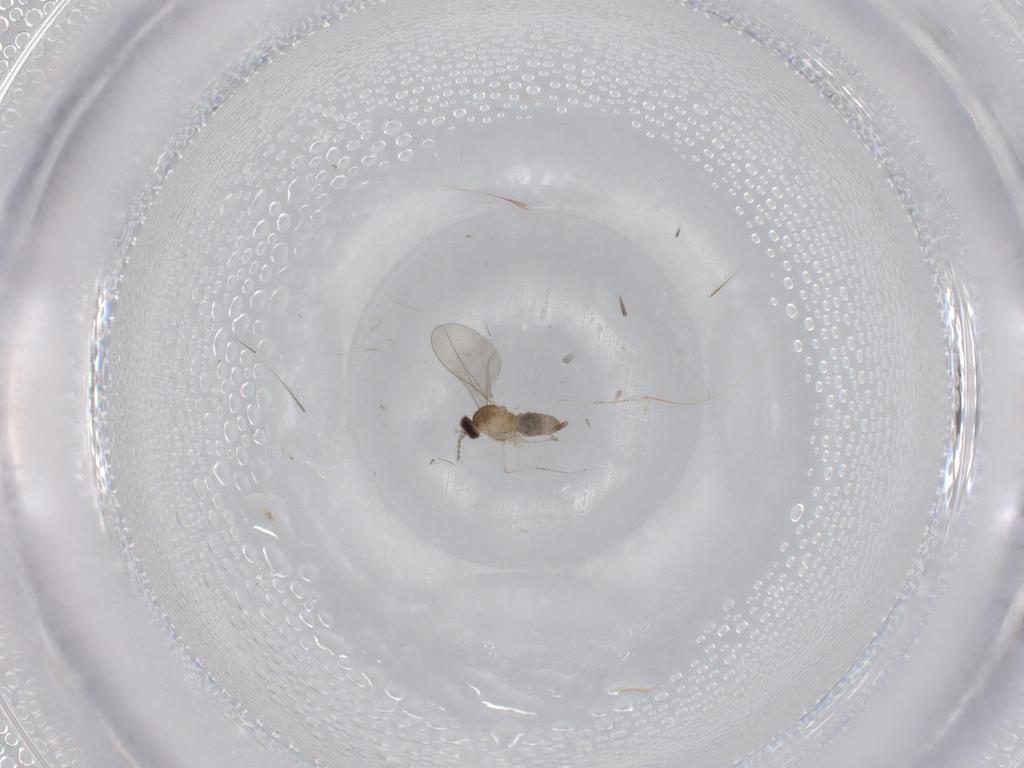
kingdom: Animalia
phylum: Arthropoda
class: Insecta
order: Diptera
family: Cecidomyiidae
